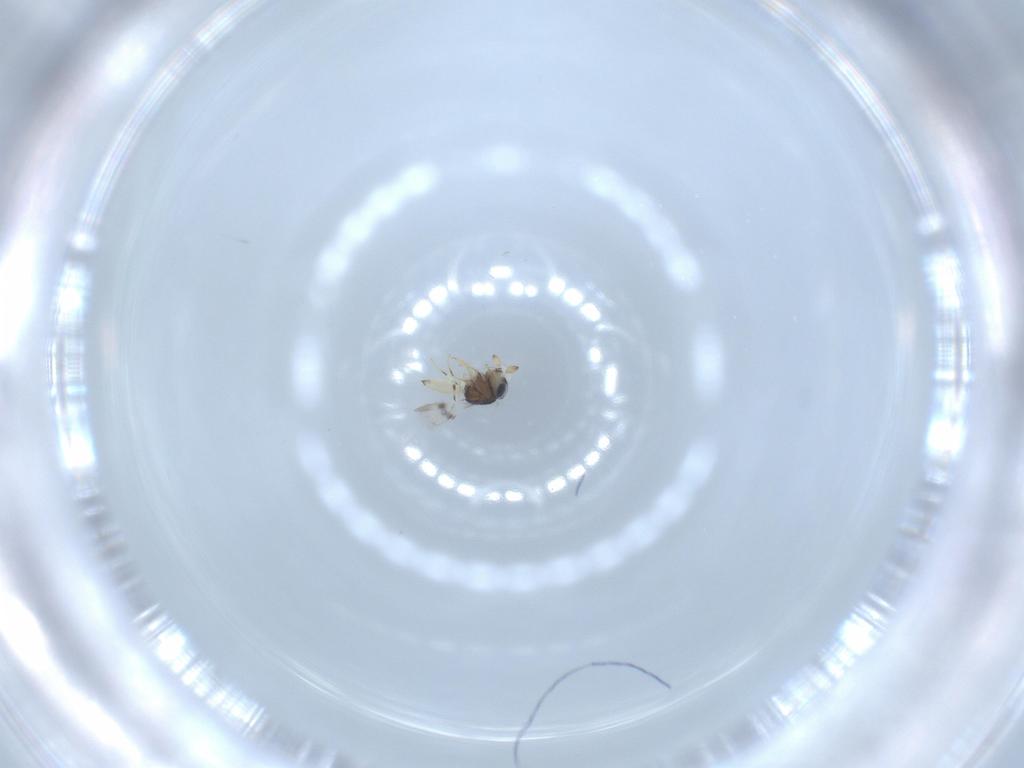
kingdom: Animalia
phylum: Arthropoda
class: Insecta
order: Hymenoptera
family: Scelionidae
